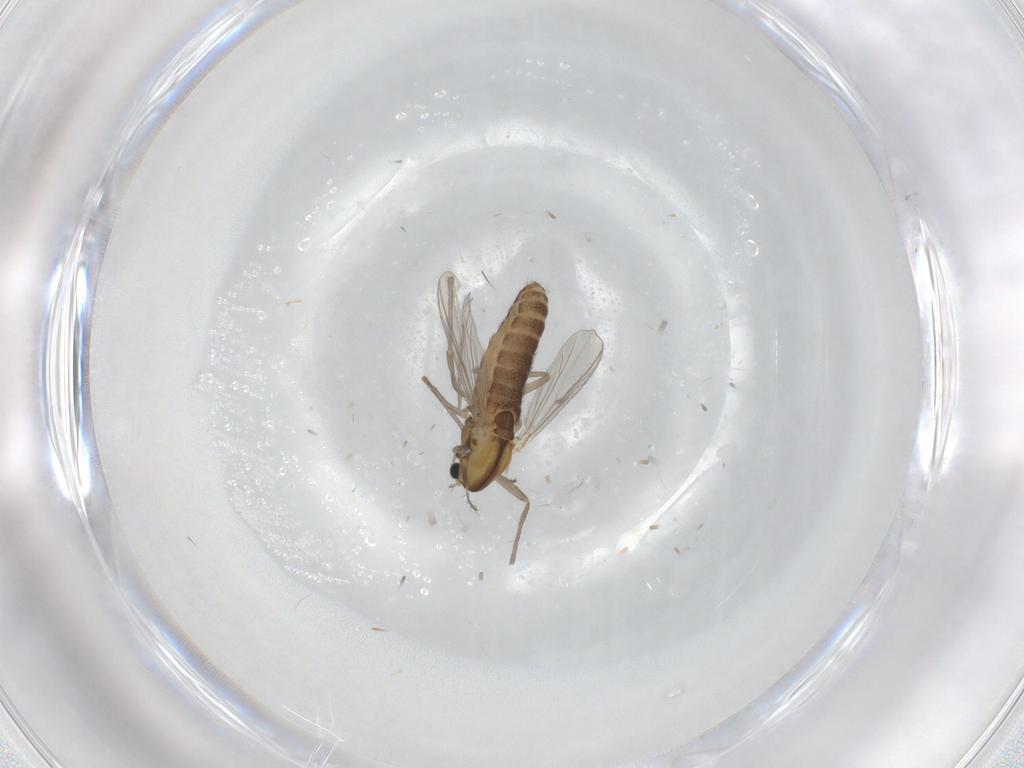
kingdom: Animalia
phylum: Arthropoda
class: Insecta
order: Diptera
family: Chironomidae
